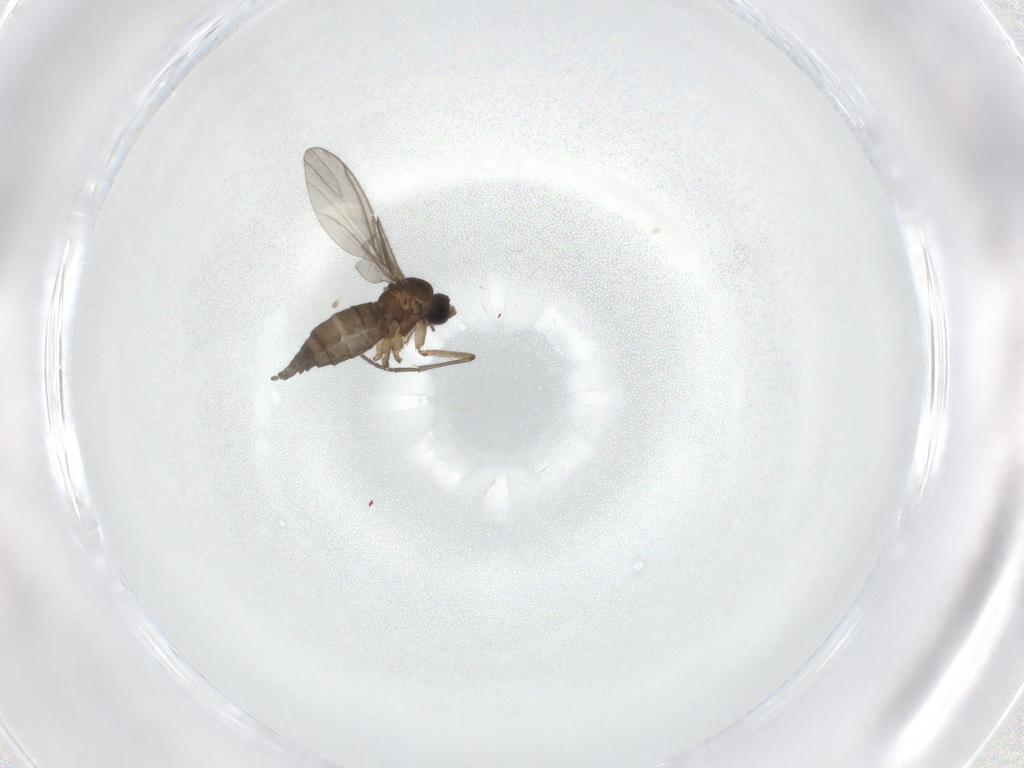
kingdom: Animalia
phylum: Arthropoda
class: Insecta
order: Diptera
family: Sciaridae
